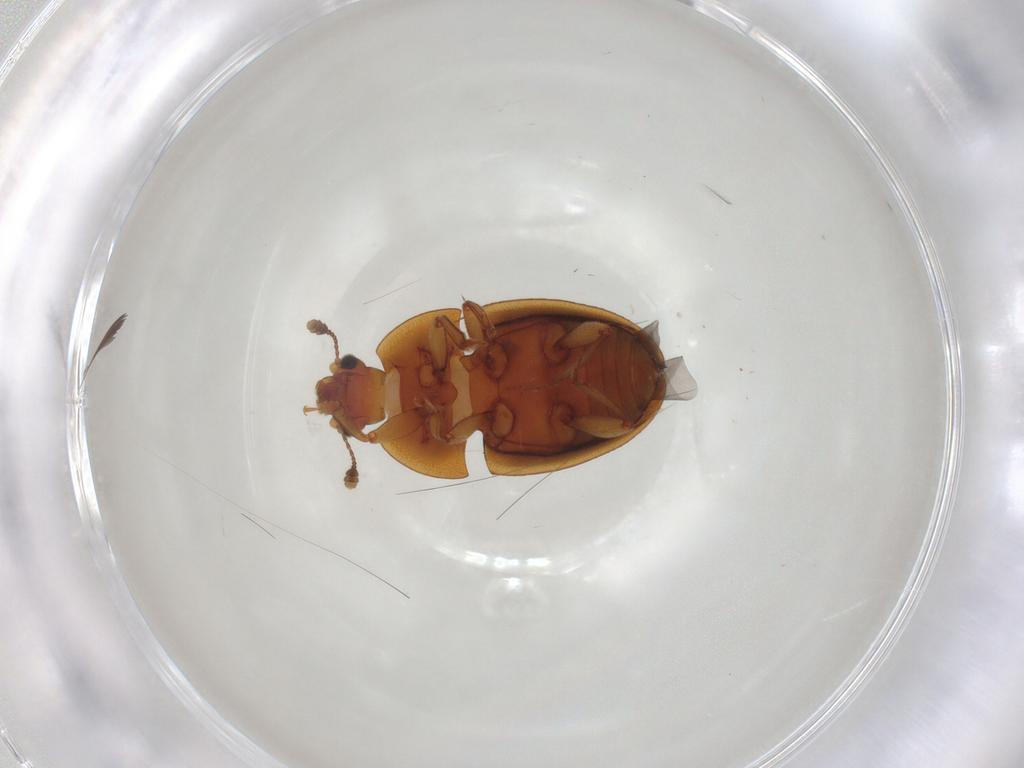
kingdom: Animalia
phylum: Arthropoda
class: Insecta
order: Coleoptera
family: Nitidulidae
